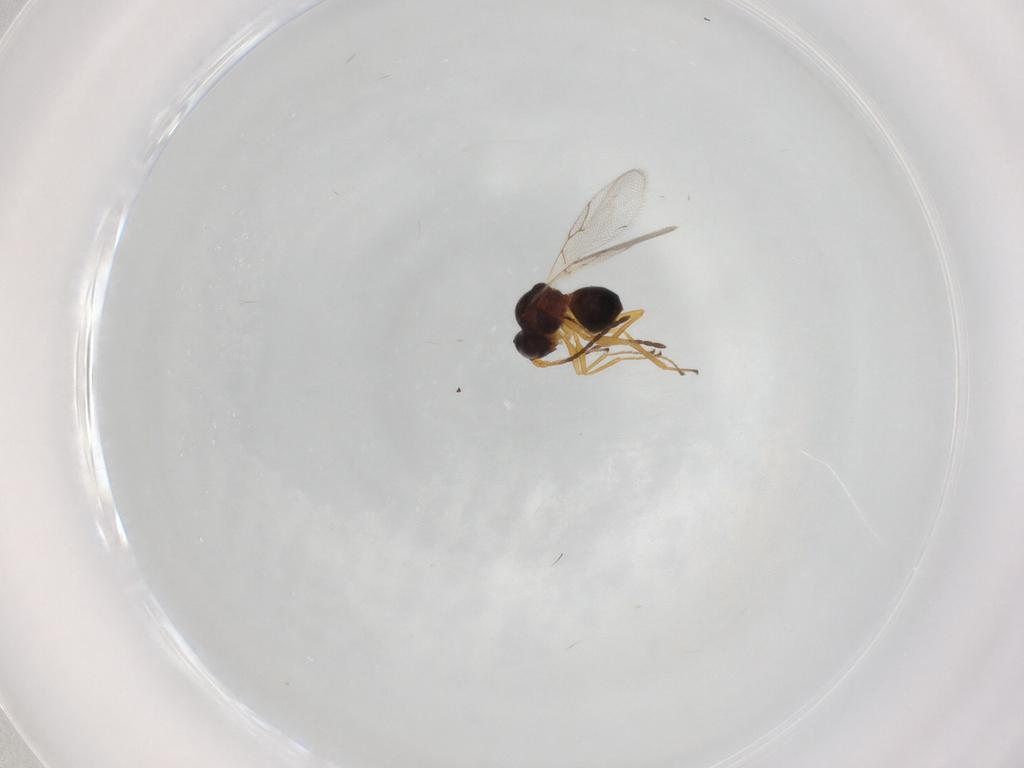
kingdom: Animalia
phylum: Arthropoda
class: Insecta
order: Hymenoptera
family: Figitidae
